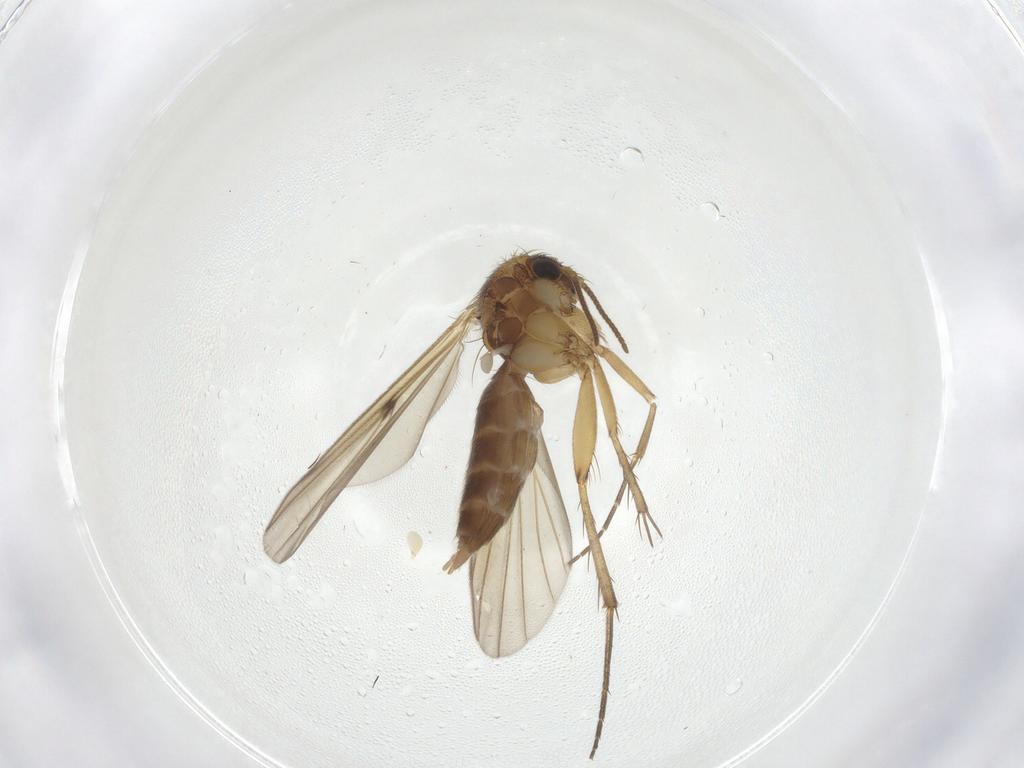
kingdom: Animalia
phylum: Arthropoda
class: Insecta
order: Diptera
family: Mycetophilidae
